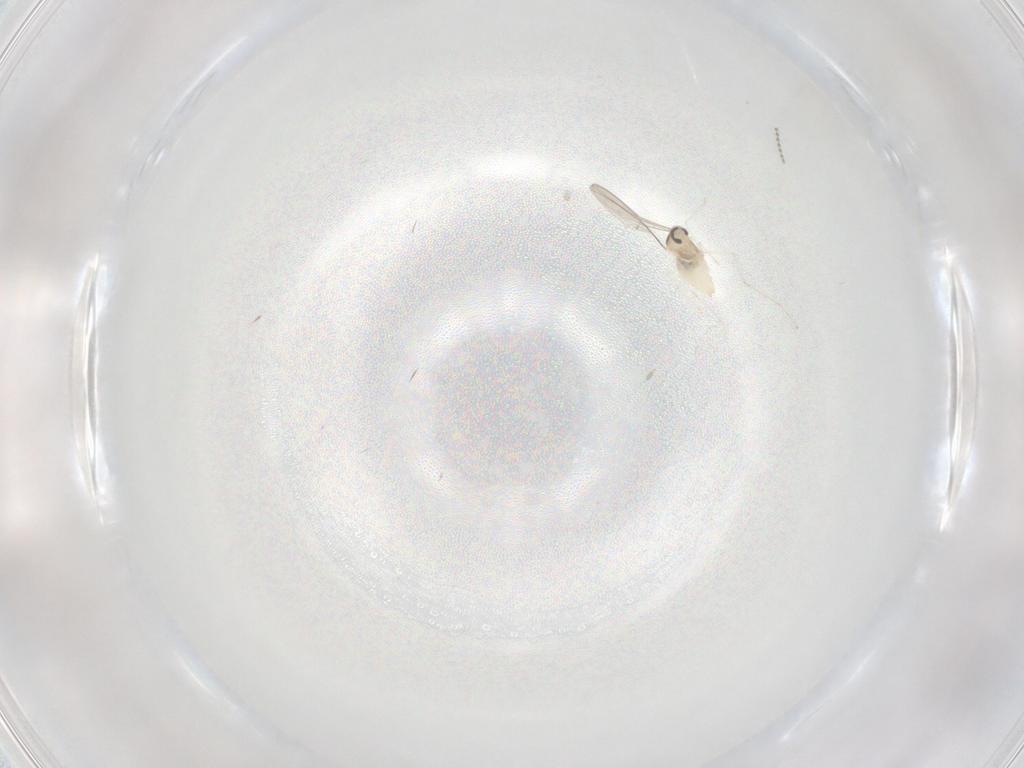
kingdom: Animalia
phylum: Arthropoda
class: Insecta
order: Diptera
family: Cecidomyiidae
